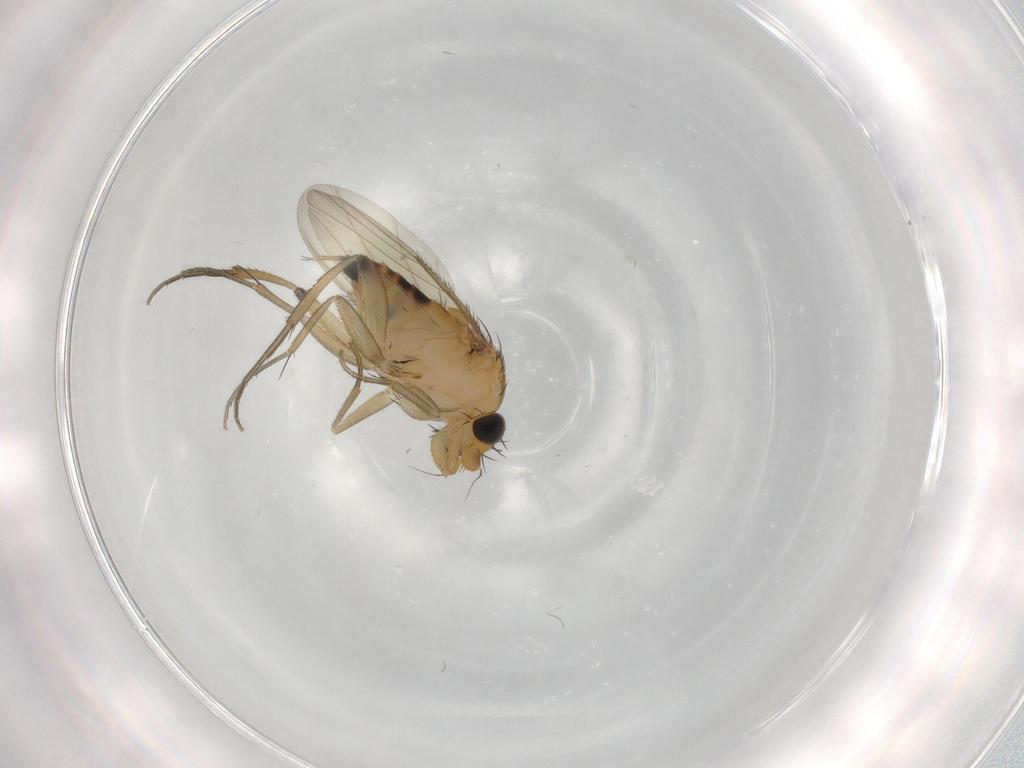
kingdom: Animalia
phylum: Arthropoda
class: Insecta
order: Diptera
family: Phoridae
